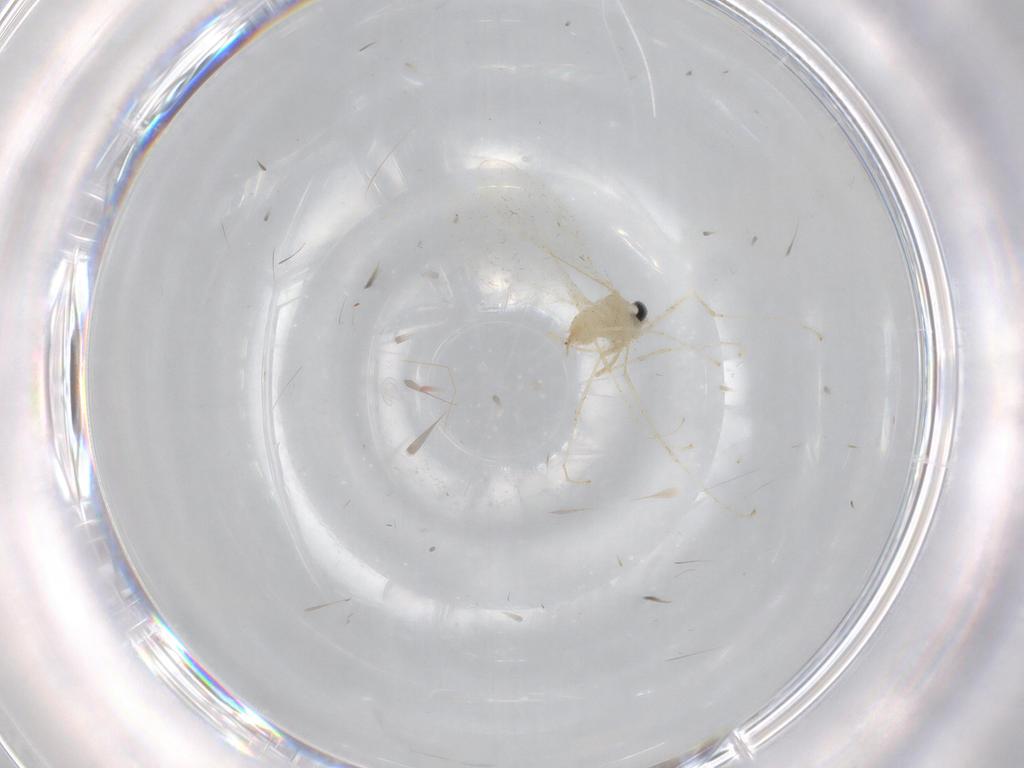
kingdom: Animalia
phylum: Arthropoda
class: Insecta
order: Diptera
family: Cecidomyiidae
